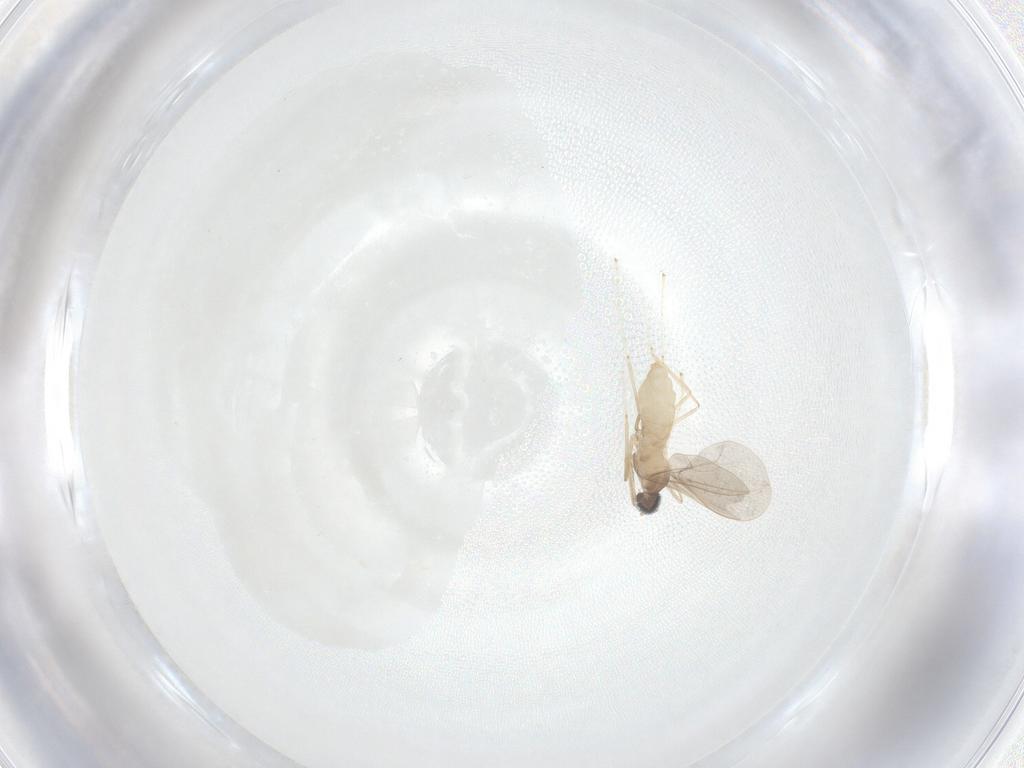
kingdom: Animalia
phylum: Arthropoda
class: Insecta
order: Diptera
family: Cecidomyiidae
